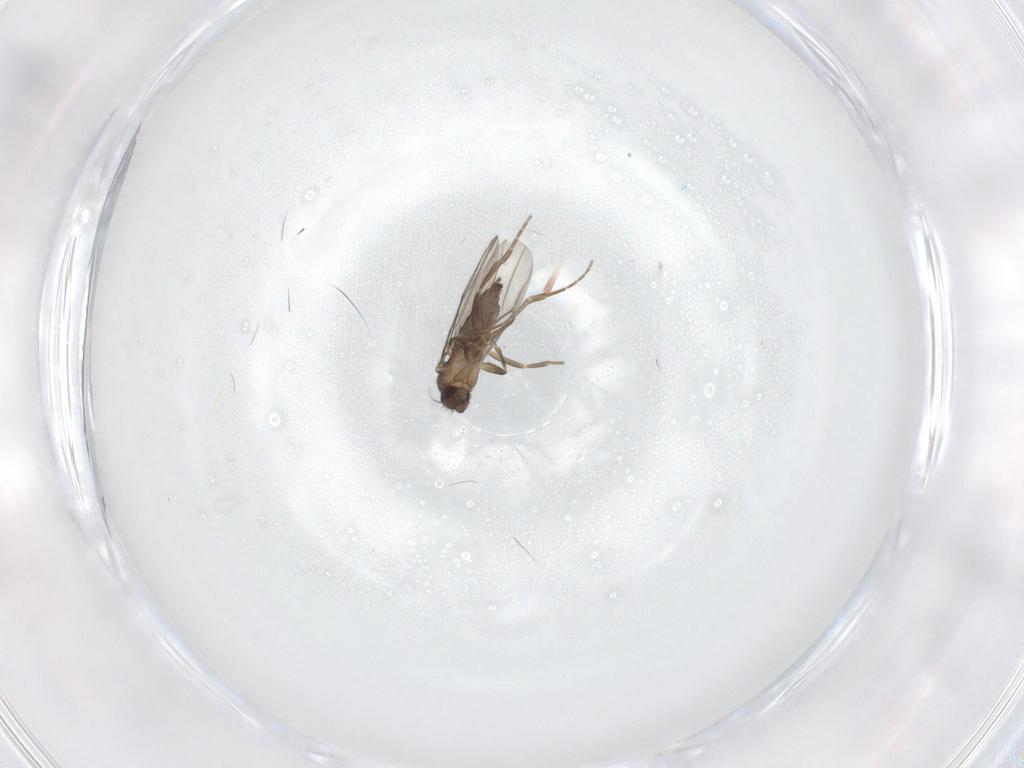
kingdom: Animalia
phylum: Arthropoda
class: Insecta
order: Diptera
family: Phoridae
